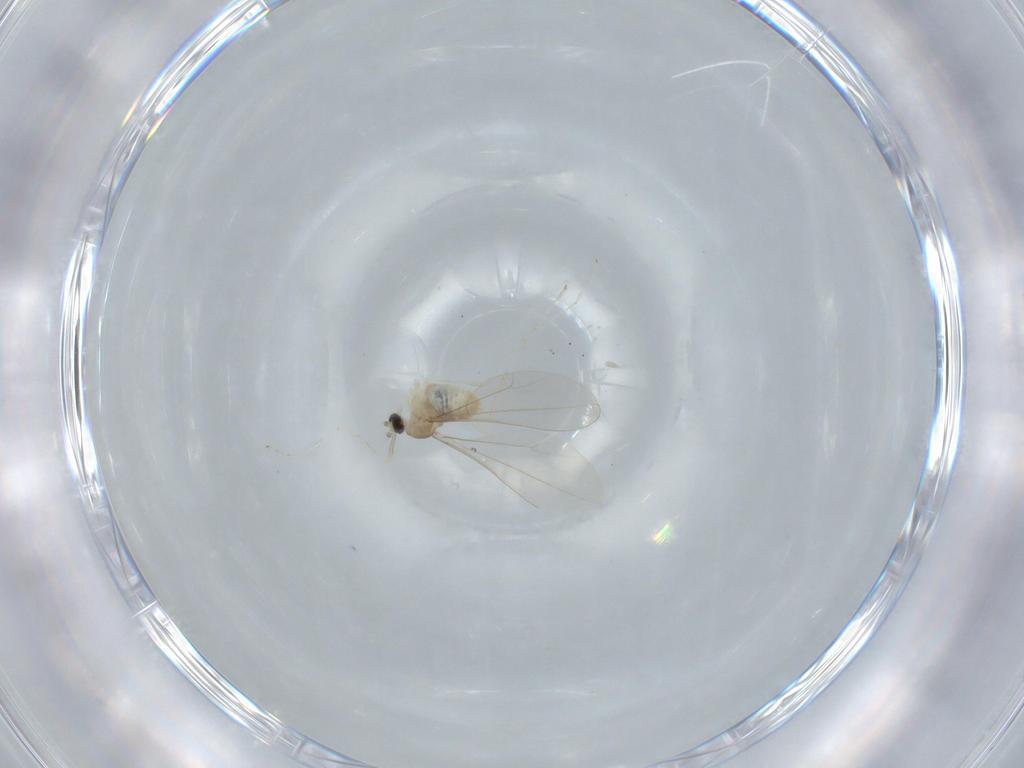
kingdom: Animalia
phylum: Arthropoda
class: Insecta
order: Diptera
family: Cecidomyiidae
